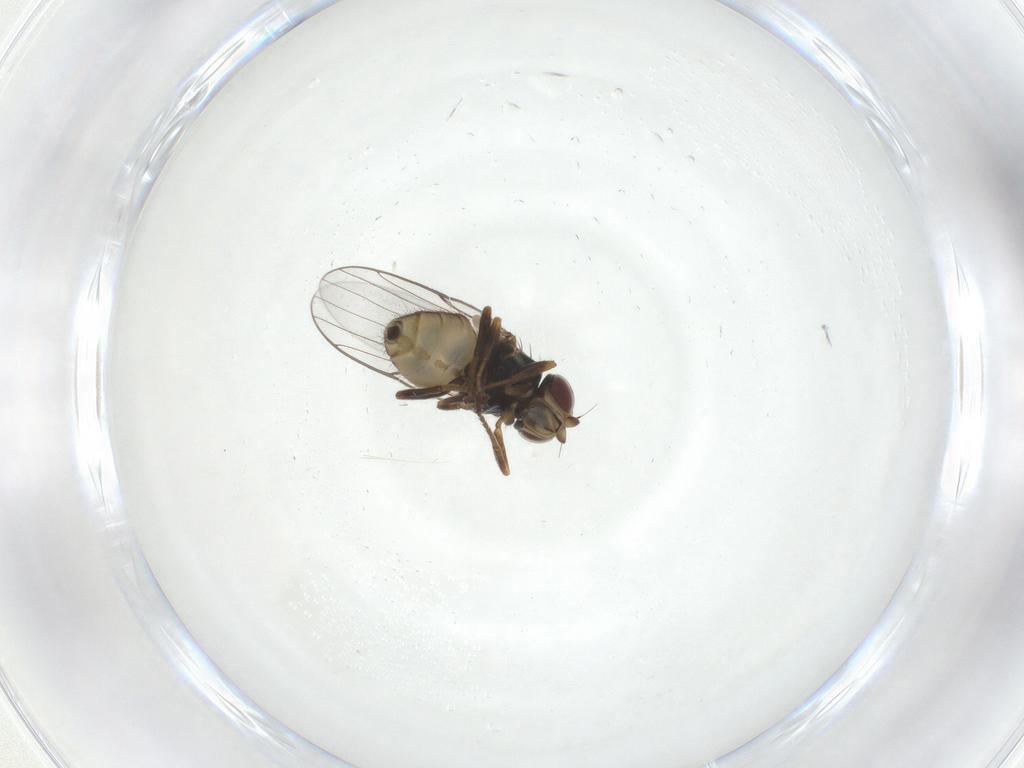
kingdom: Animalia
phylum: Arthropoda
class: Insecta
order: Diptera
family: Chloropidae
